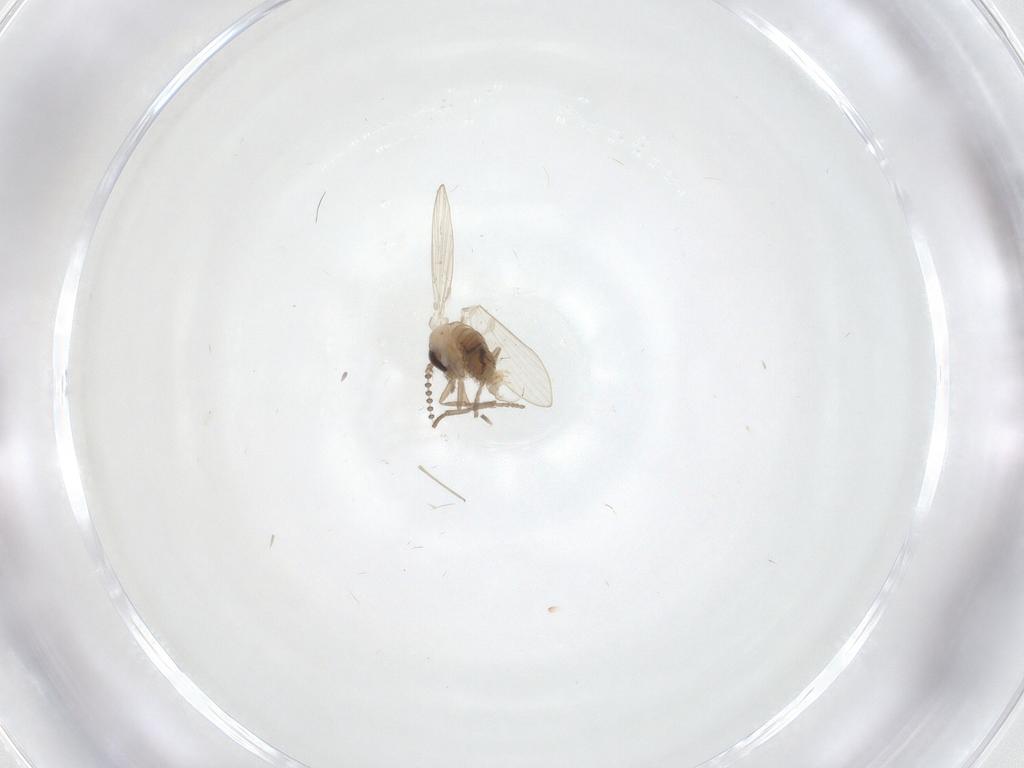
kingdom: Animalia
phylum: Arthropoda
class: Insecta
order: Diptera
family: Psychodidae
